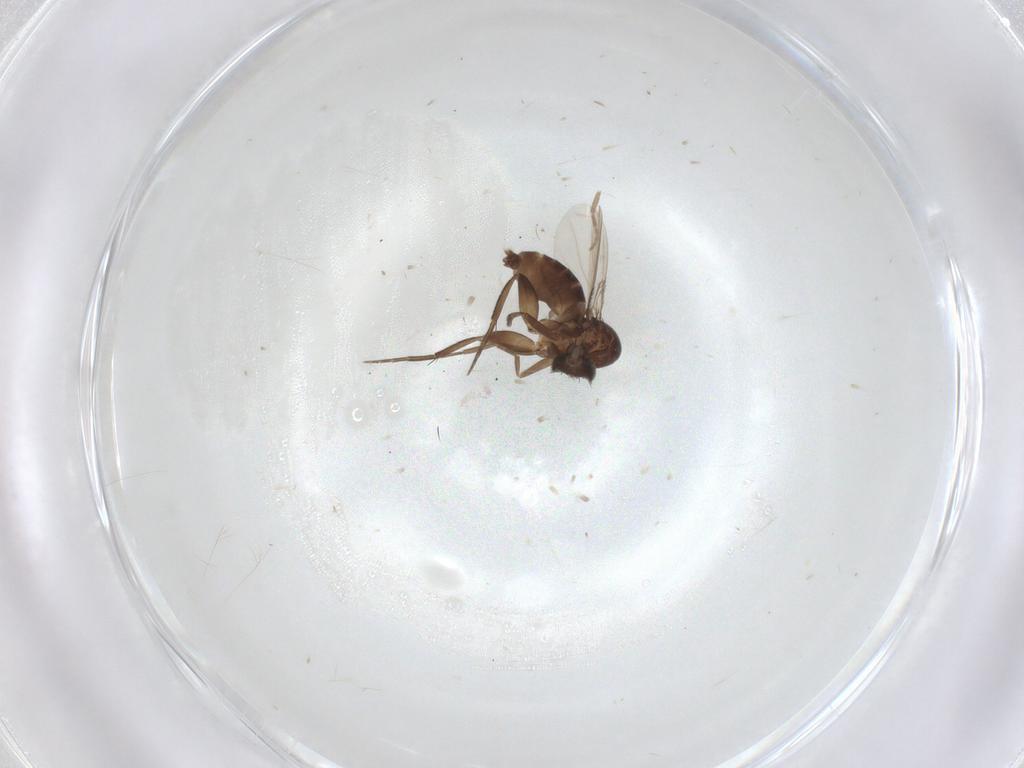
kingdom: Animalia
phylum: Arthropoda
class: Insecta
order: Diptera
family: Phoridae
